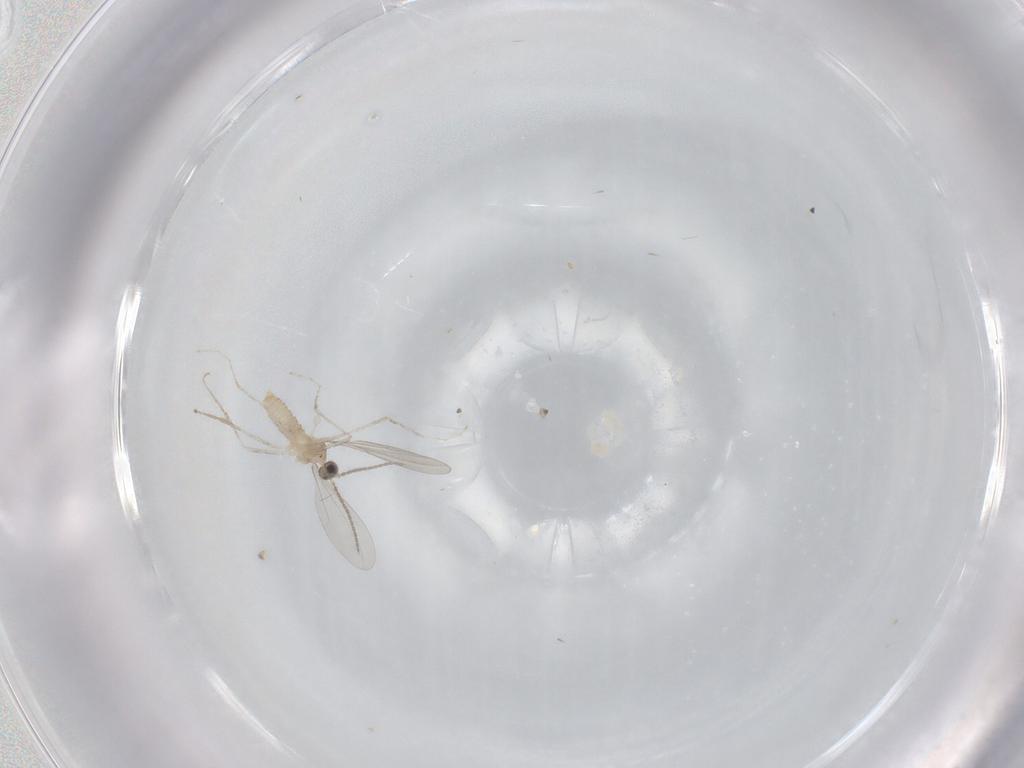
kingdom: Animalia
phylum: Arthropoda
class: Insecta
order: Diptera
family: Cecidomyiidae
